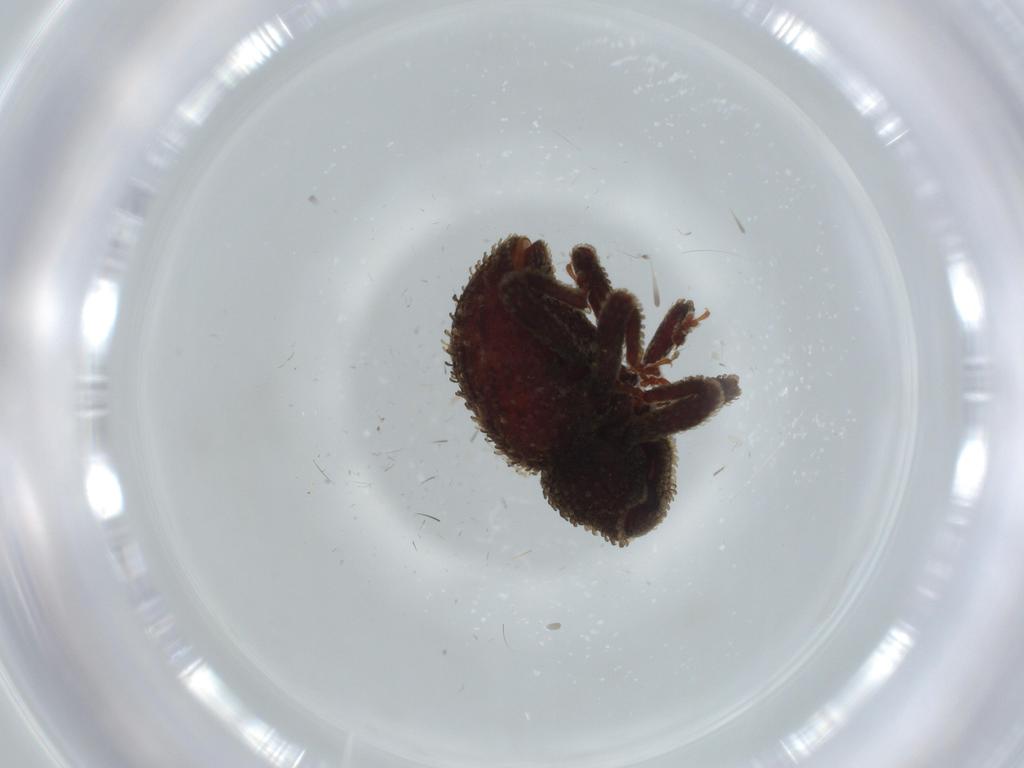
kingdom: Animalia
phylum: Arthropoda
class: Insecta
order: Coleoptera
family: Curculionidae
